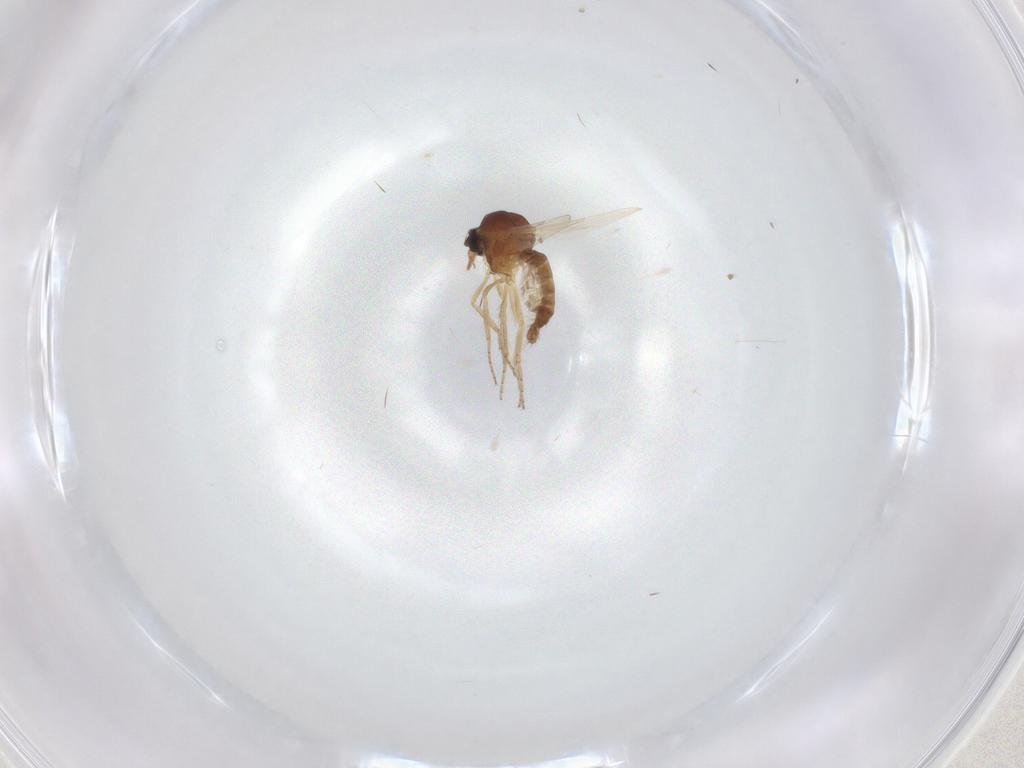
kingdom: Animalia
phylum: Arthropoda
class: Insecta
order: Diptera
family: Ceratopogonidae
